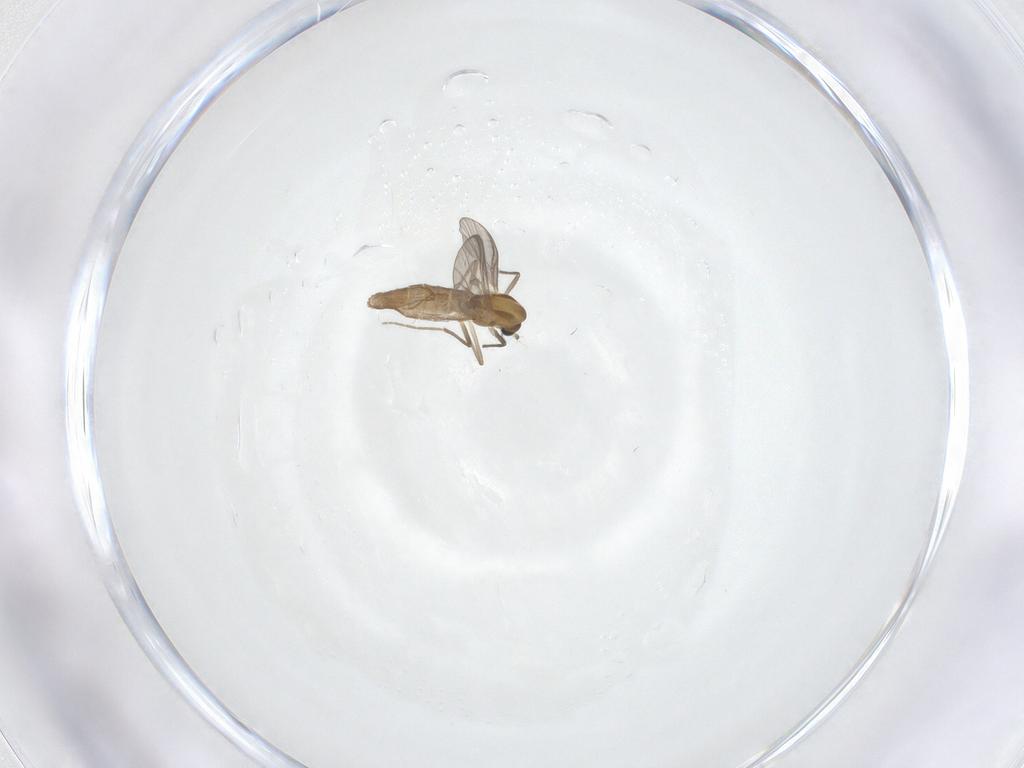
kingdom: Animalia
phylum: Arthropoda
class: Insecta
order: Diptera
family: Chironomidae
